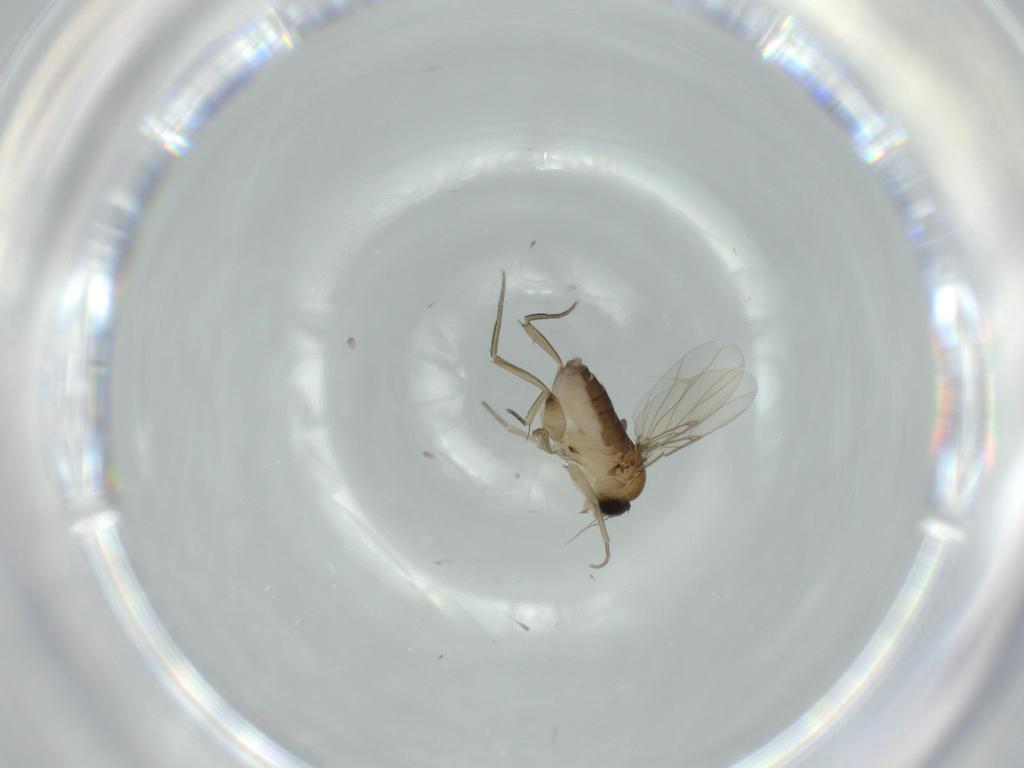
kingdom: Animalia
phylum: Arthropoda
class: Insecta
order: Diptera
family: Phoridae
